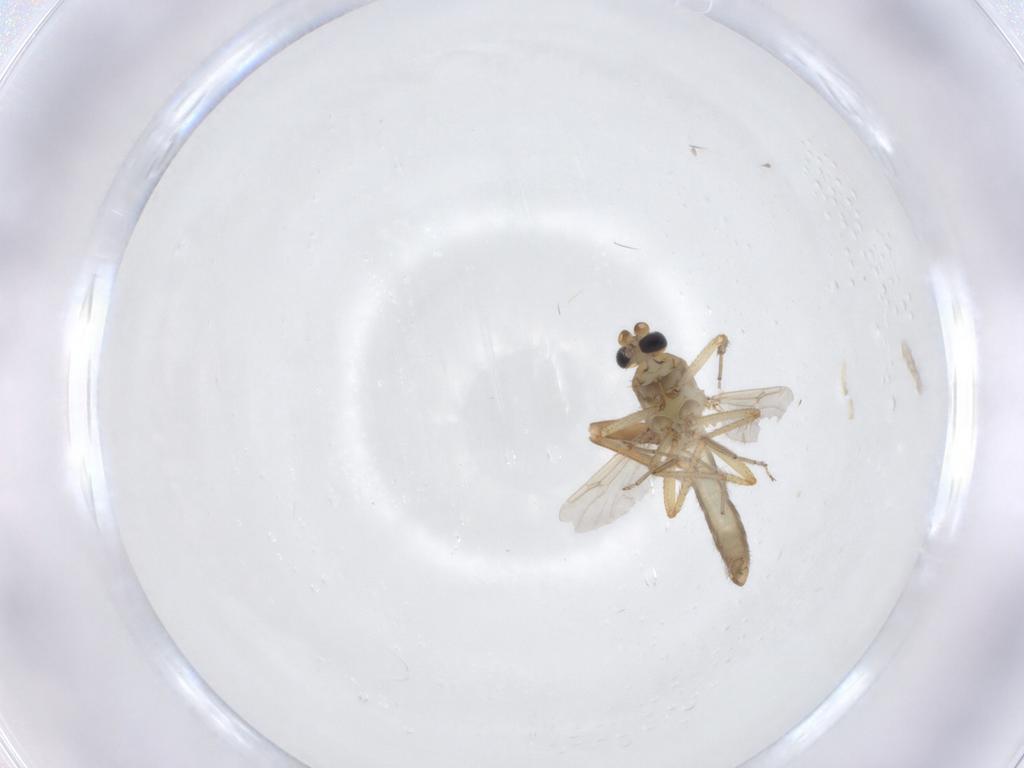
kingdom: Animalia
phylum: Arthropoda
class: Insecta
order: Diptera
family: Ceratopogonidae
